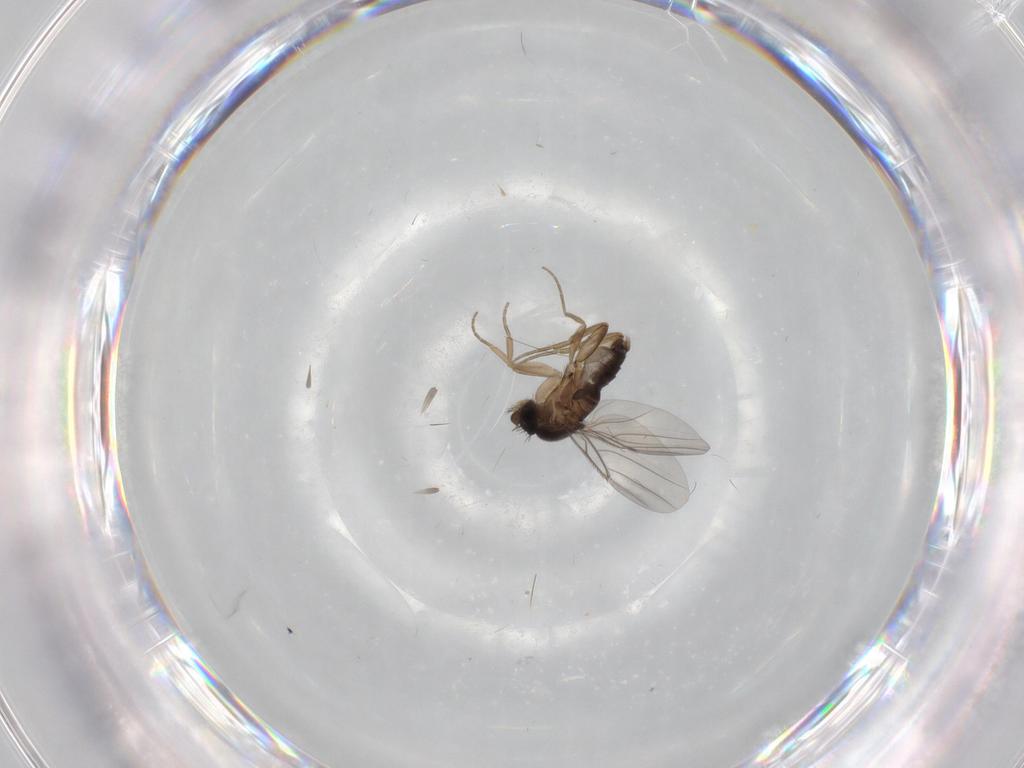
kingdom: Animalia
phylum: Arthropoda
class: Insecta
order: Diptera
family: Phoridae
